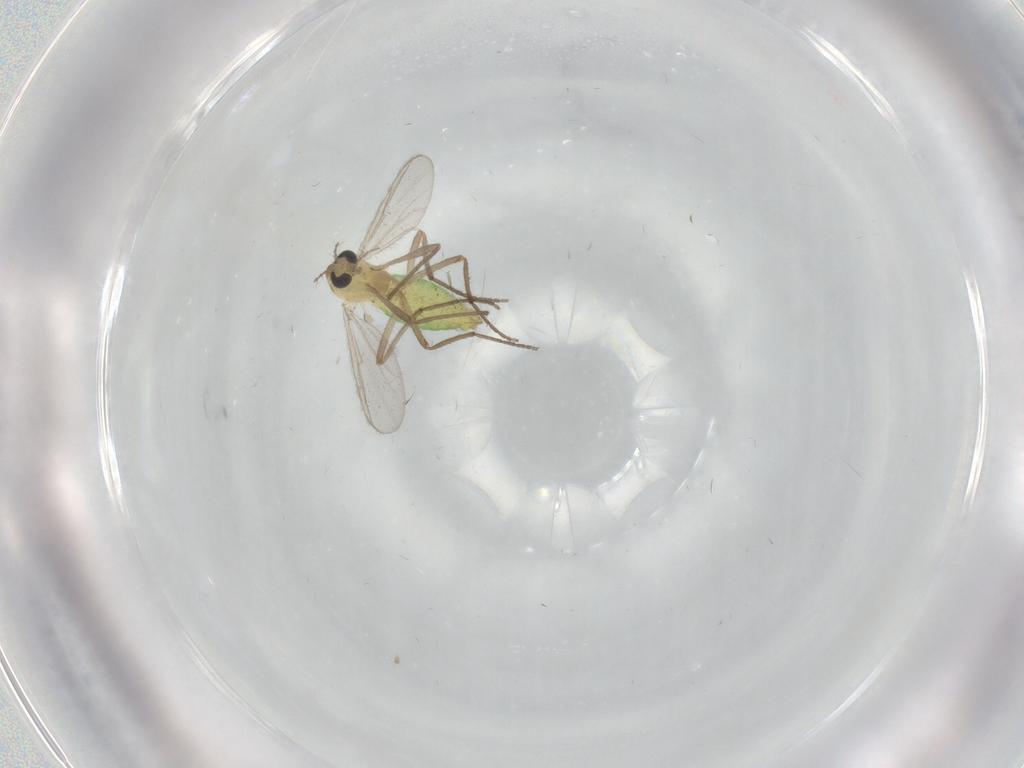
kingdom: Animalia
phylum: Arthropoda
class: Insecta
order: Diptera
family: Chironomidae
